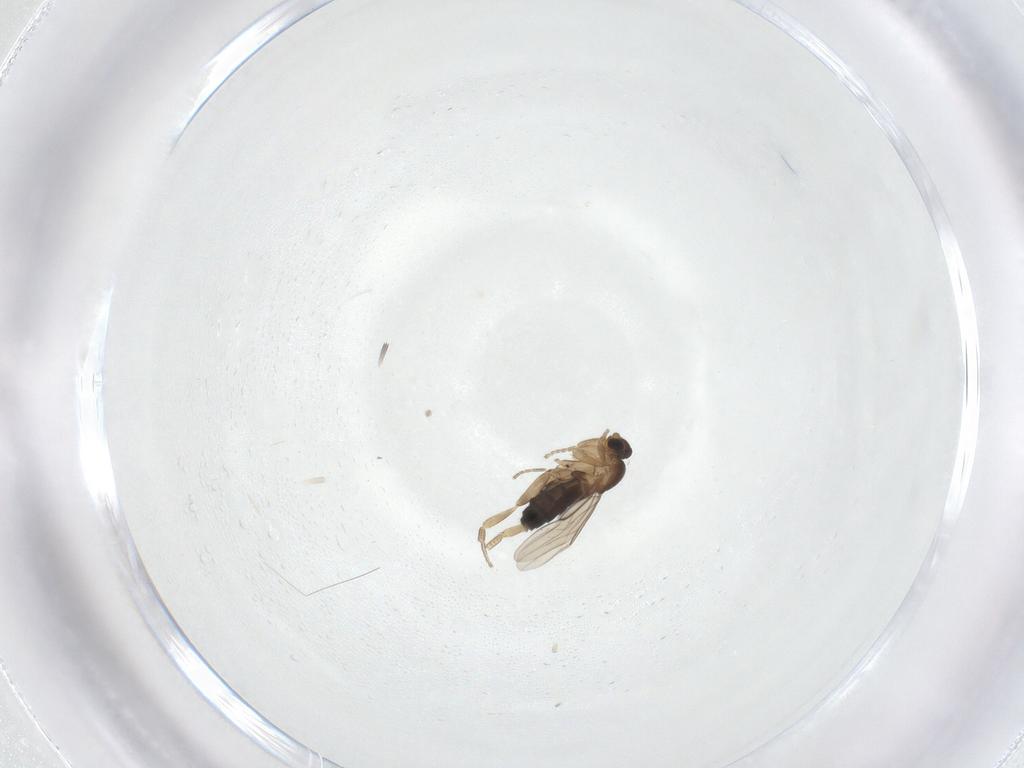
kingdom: Animalia
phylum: Arthropoda
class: Insecta
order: Diptera
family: Phoridae
